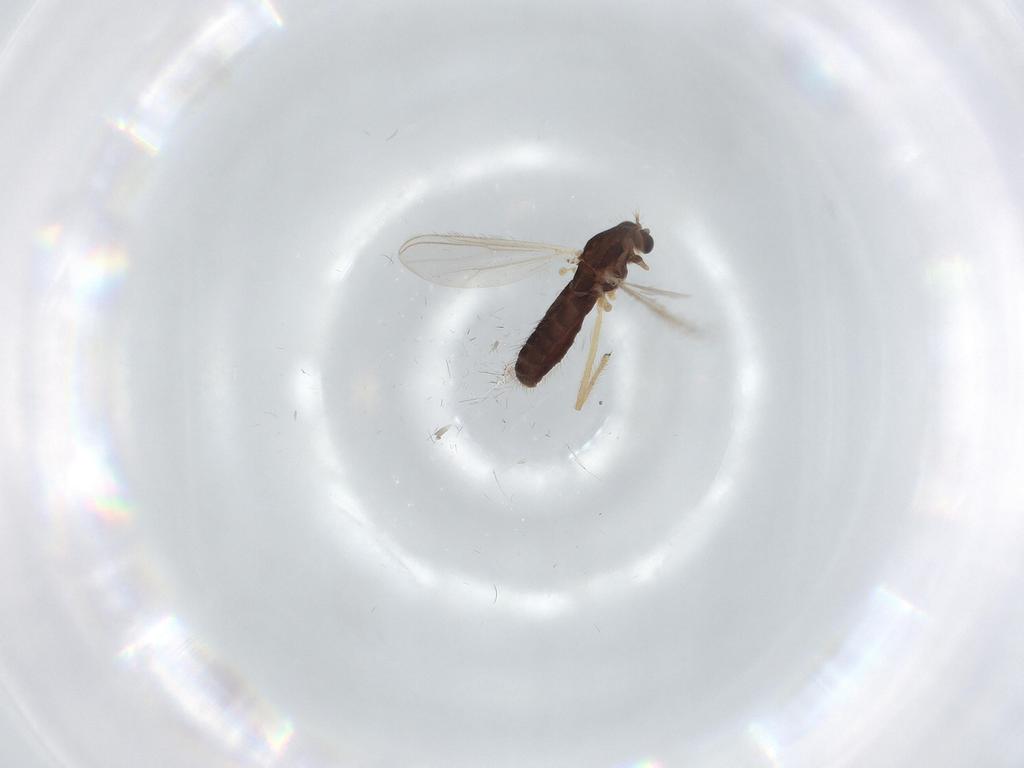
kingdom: Animalia
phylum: Arthropoda
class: Insecta
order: Diptera
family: Chironomidae
